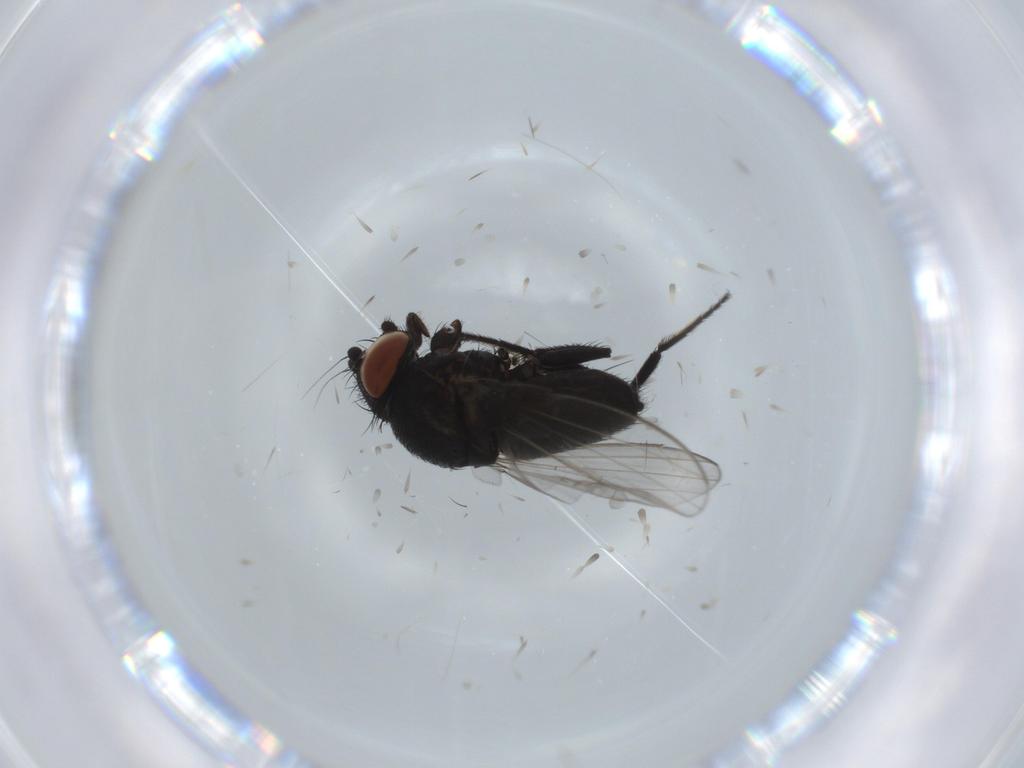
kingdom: Animalia
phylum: Arthropoda
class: Insecta
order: Diptera
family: Milichiidae
